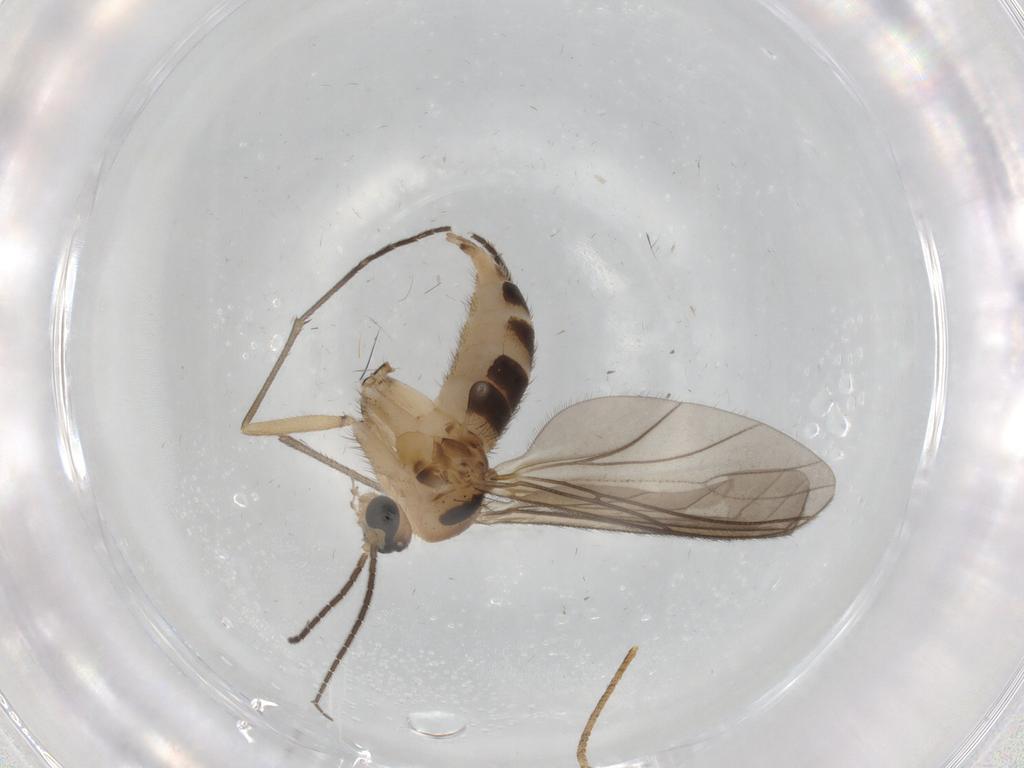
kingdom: Animalia
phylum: Arthropoda
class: Insecta
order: Diptera
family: Sciaridae
